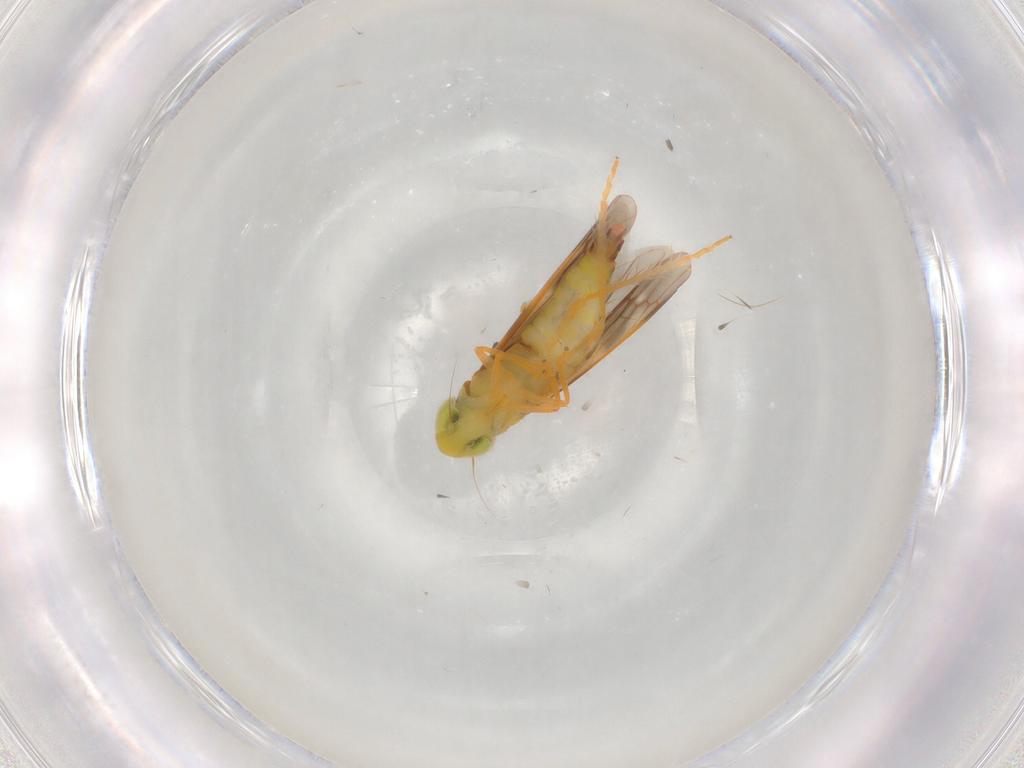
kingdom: Animalia
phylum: Arthropoda
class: Insecta
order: Hemiptera
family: Cicadellidae
